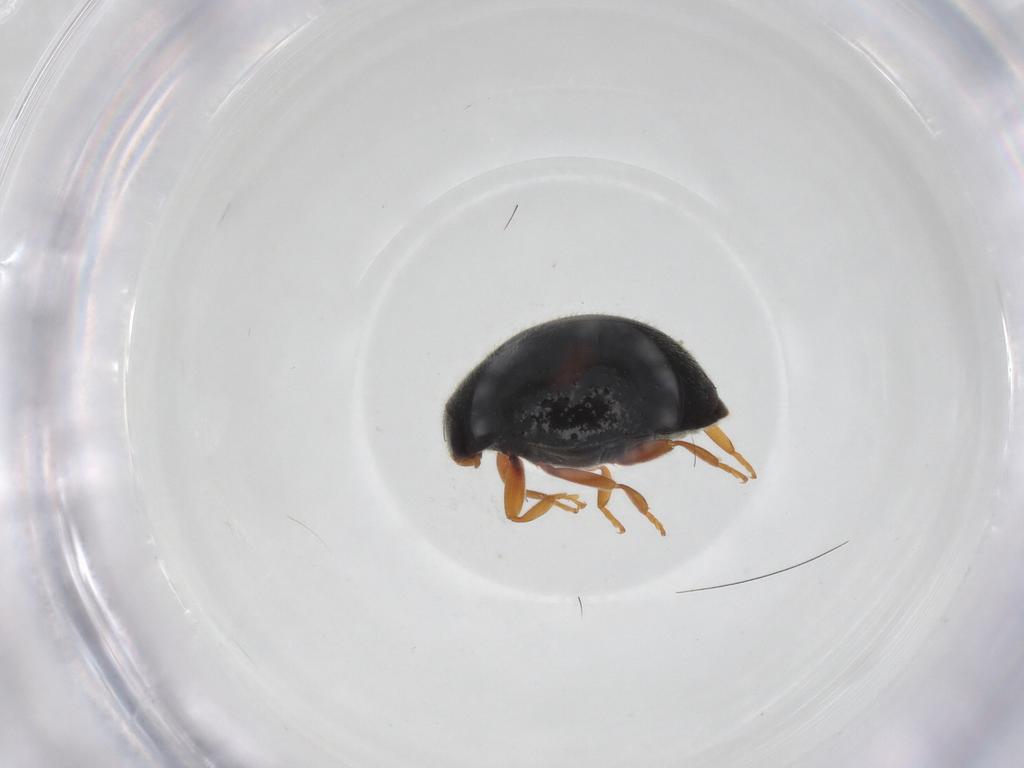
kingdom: Animalia
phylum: Arthropoda
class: Insecta
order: Coleoptera
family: Coccinellidae
